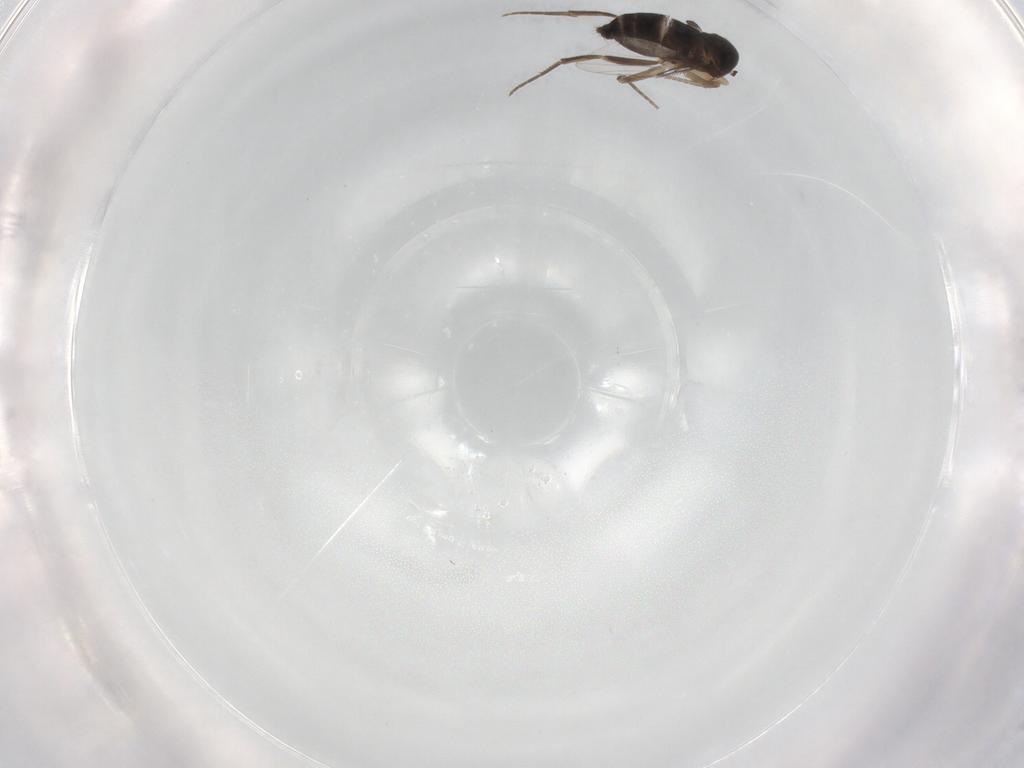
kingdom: Animalia
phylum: Arthropoda
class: Insecta
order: Diptera
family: Phoridae
